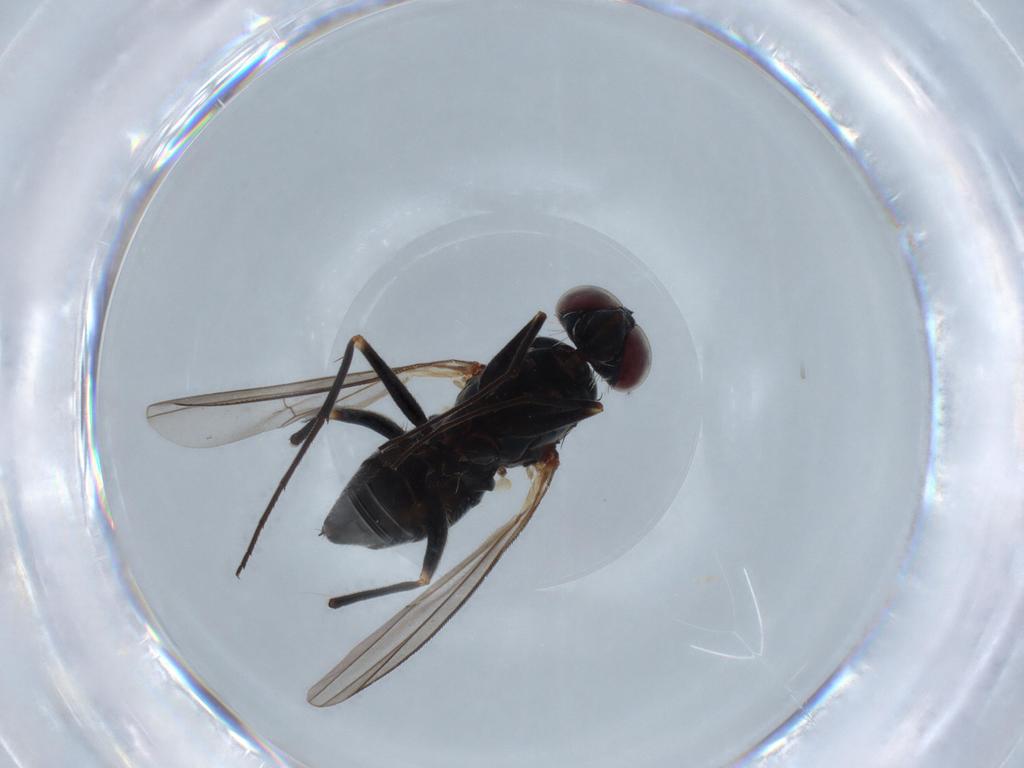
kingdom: Animalia
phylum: Arthropoda
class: Insecta
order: Diptera
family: Dolichopodidae
